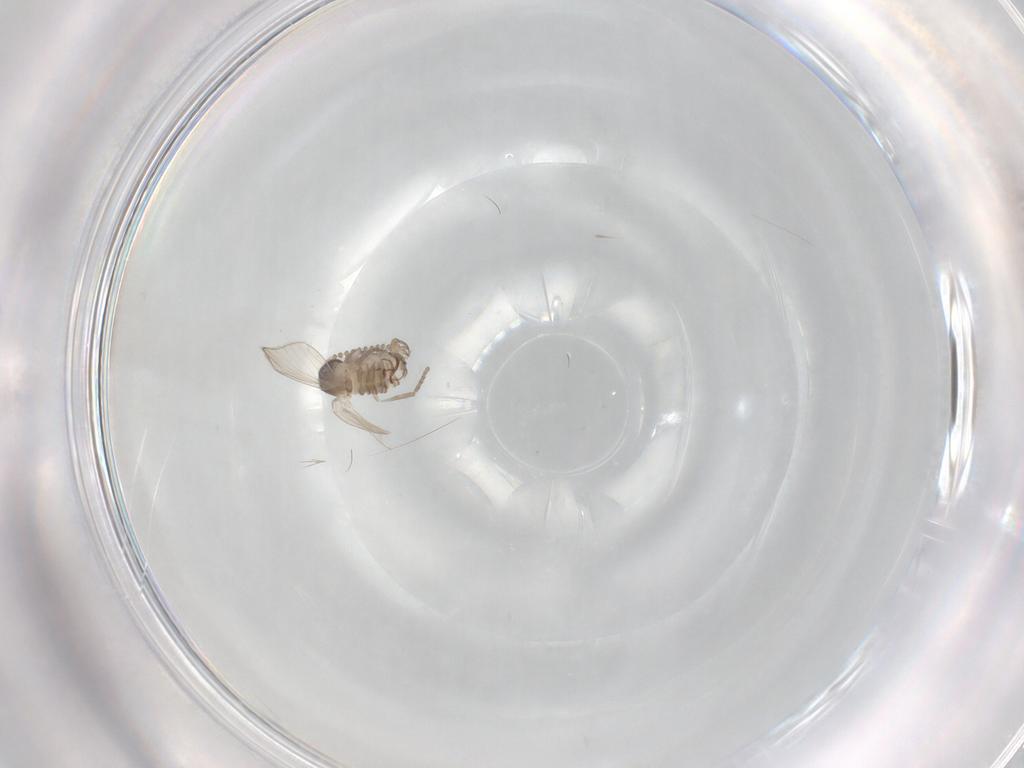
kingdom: Animalia
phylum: Arthropoda
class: Insecta
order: Diptera
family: Psychodidae
